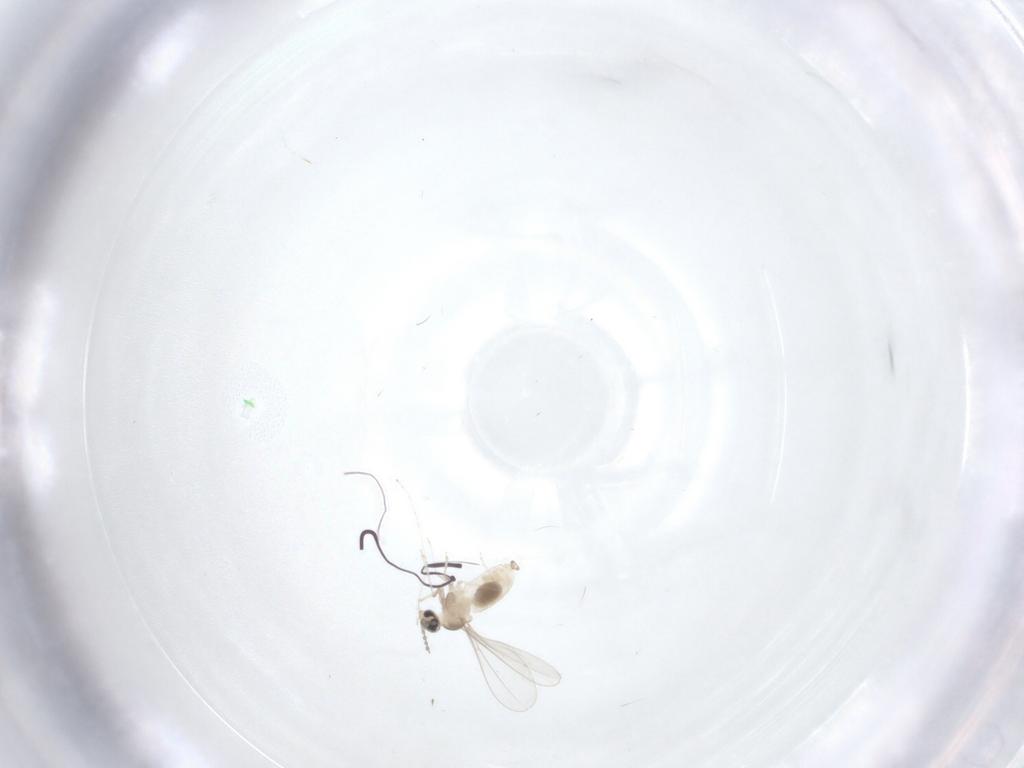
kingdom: Animalia
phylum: Arthropoda
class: Insecta
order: Diptera
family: Cecidomyiidae
